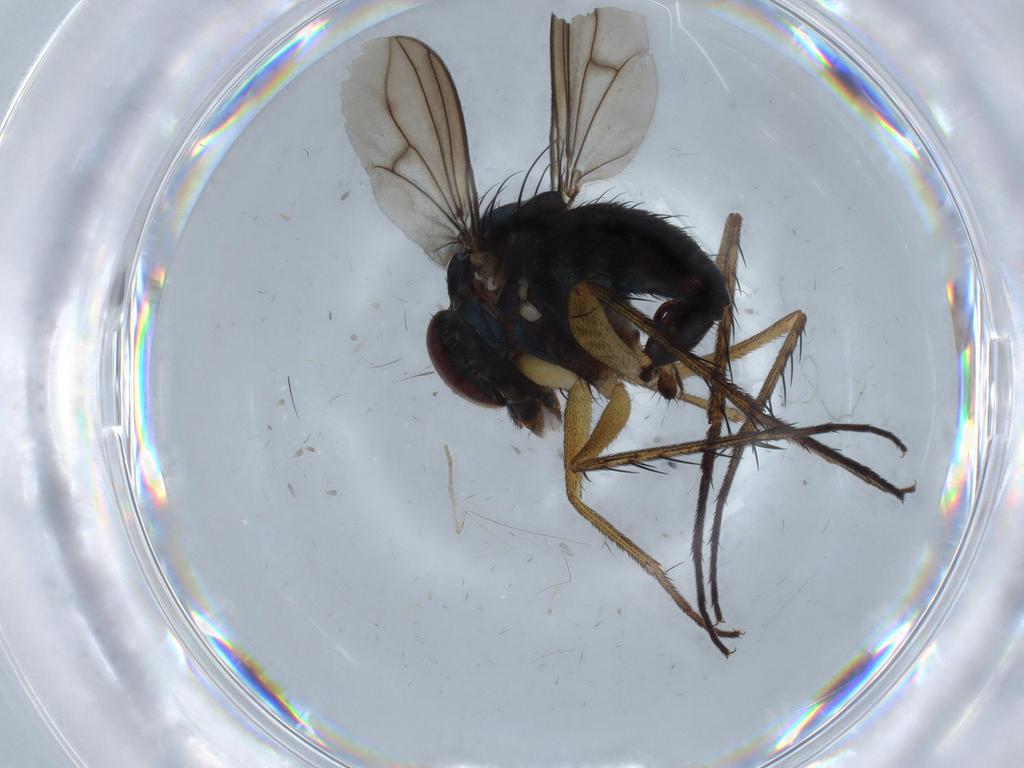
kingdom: Animalia
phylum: Arthropoda
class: Insecta
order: Diptera
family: Cecidomyiidae
